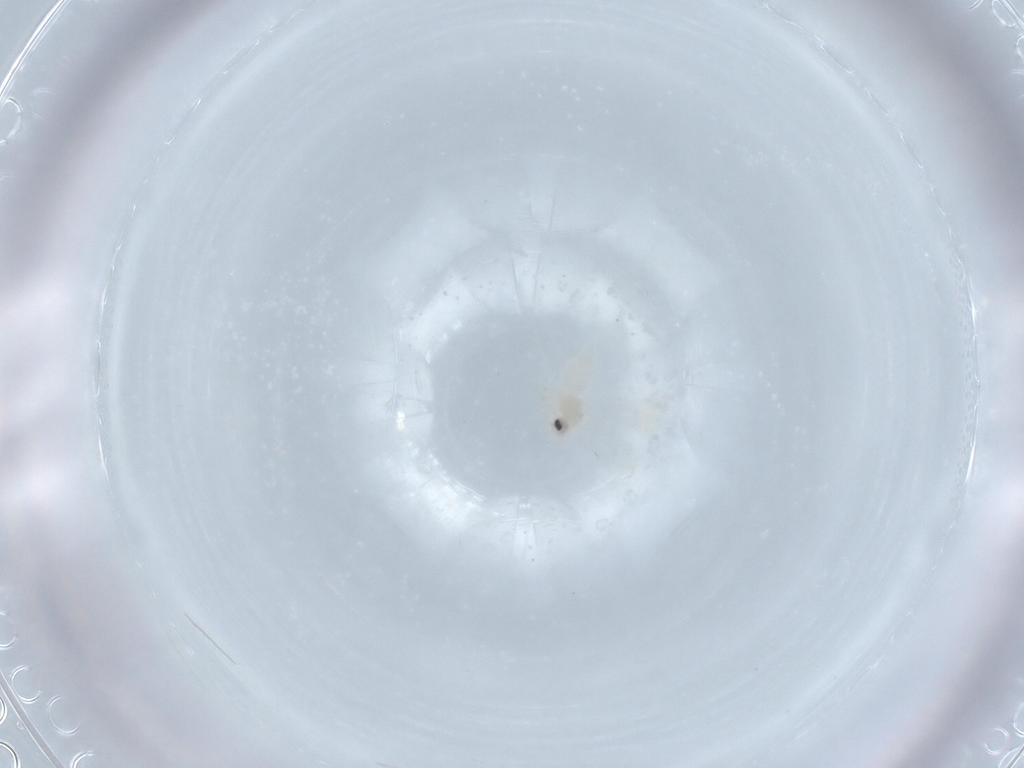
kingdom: Animalia
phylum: Arthropoda
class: Insecta
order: Hemiptera
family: Aleyrodidae
